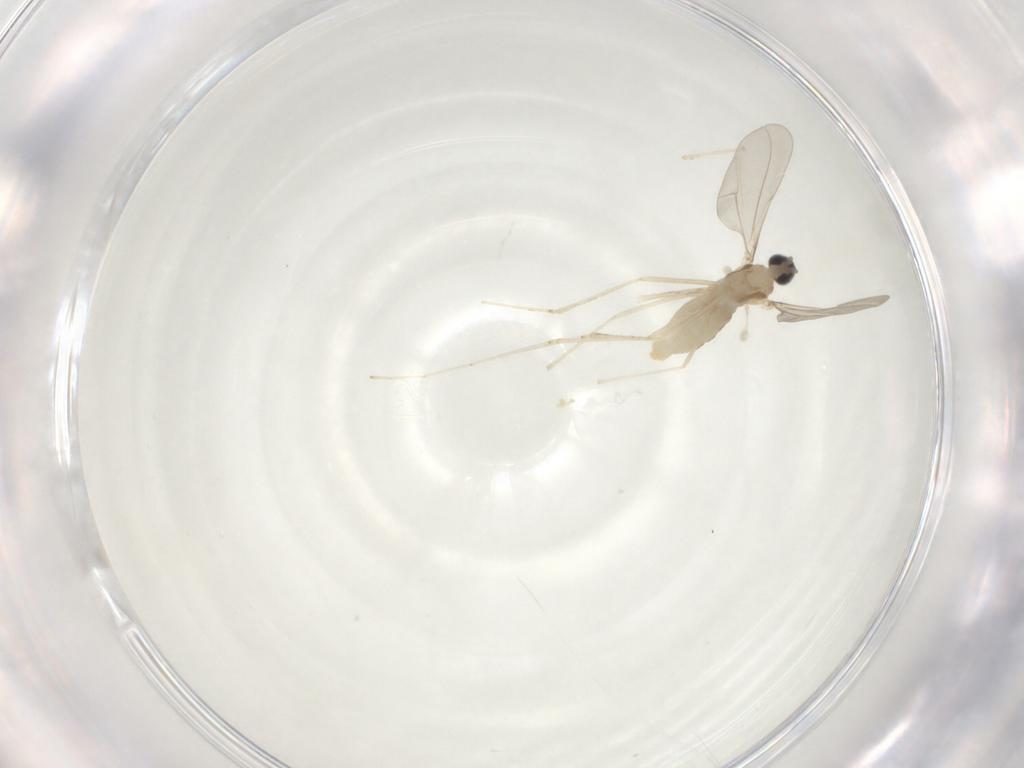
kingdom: Animalia
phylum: Arthropoda
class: Insecta
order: Diptera
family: Cecidomyiidae
